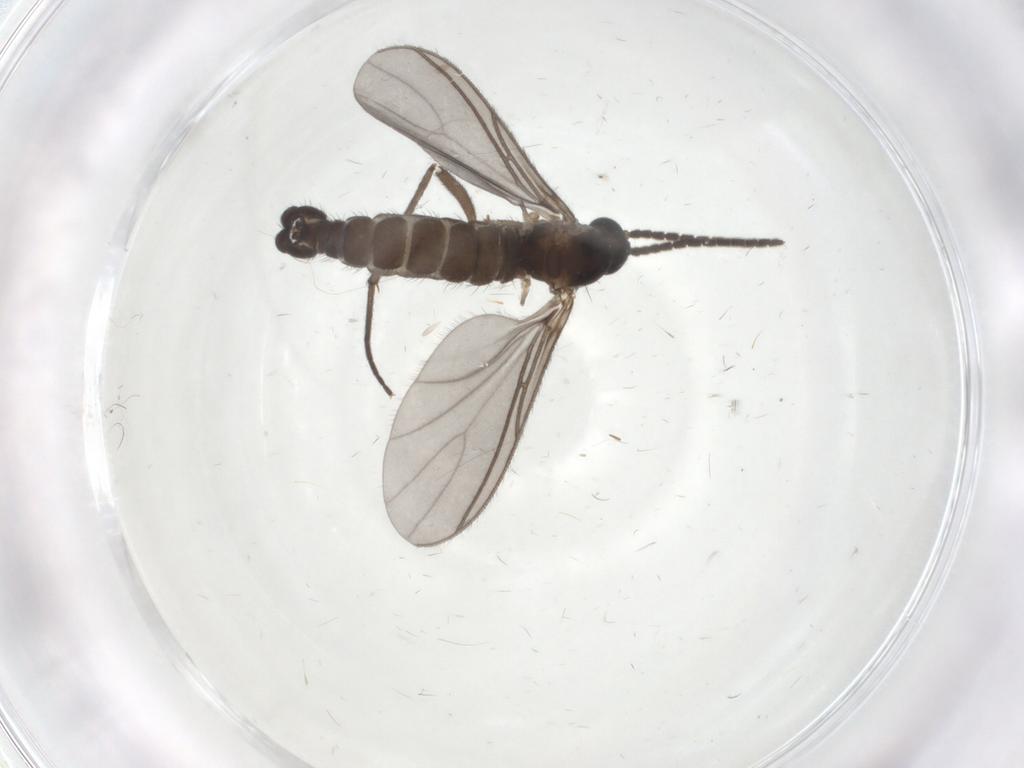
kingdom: Animalia
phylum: Arthropoda
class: Insecta
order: Diptera
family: Sciaridae
